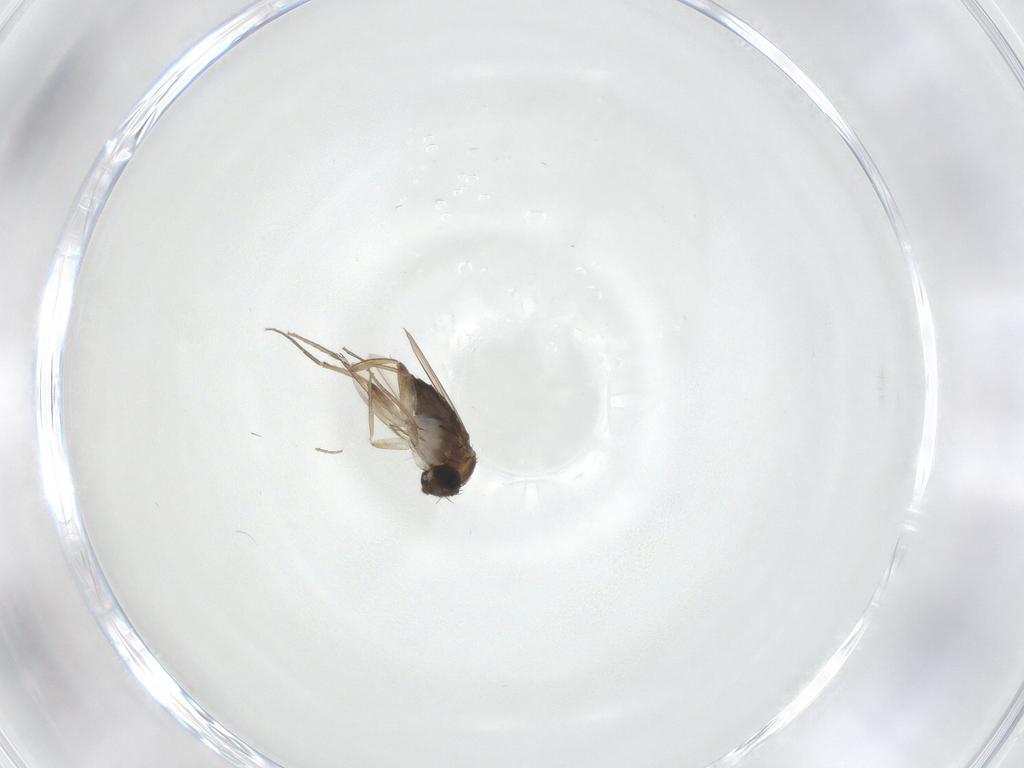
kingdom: Animalia
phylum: Arthropoda
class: Insecta
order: Diptera
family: Phoridae
